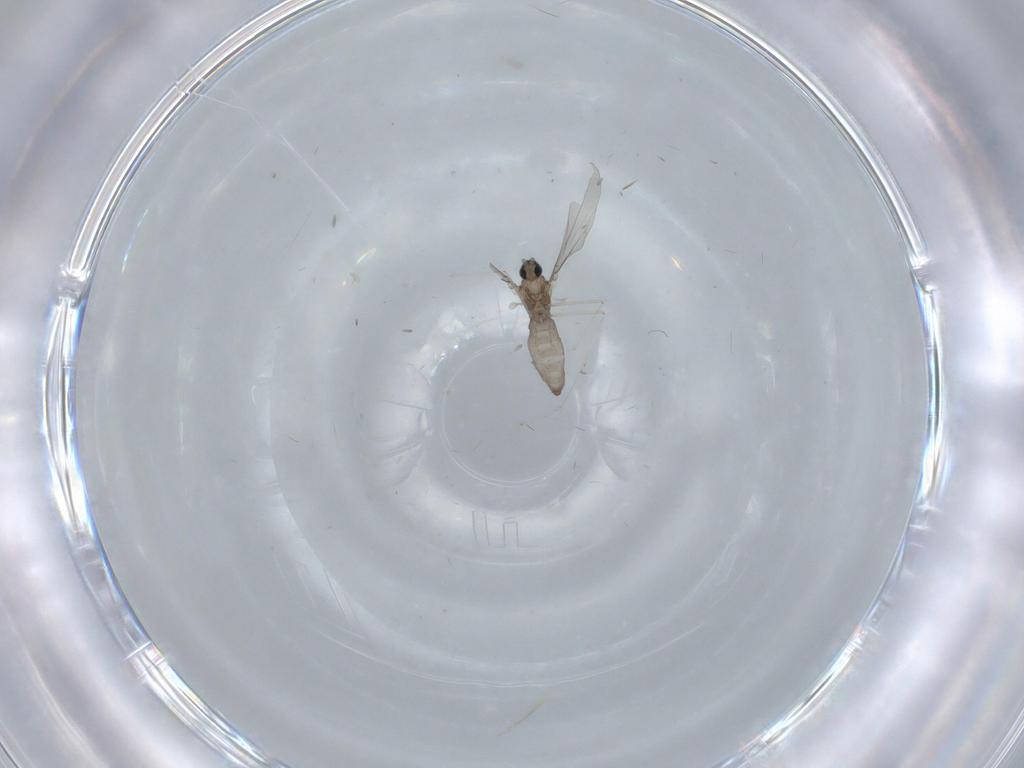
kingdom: Animalia
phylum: Arthropoda
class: Insecta
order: Diptera
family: Cecidomyiidae
